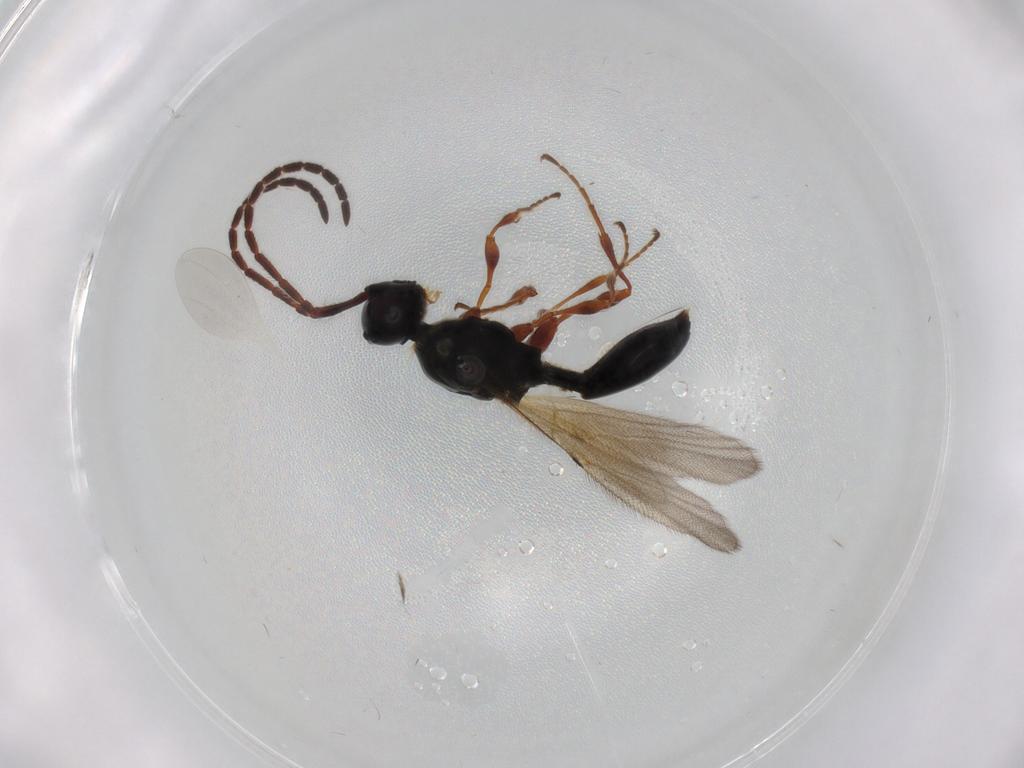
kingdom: Animalia
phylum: Arthropoda
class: Insecta
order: Hymenoptera
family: Diapriidae
